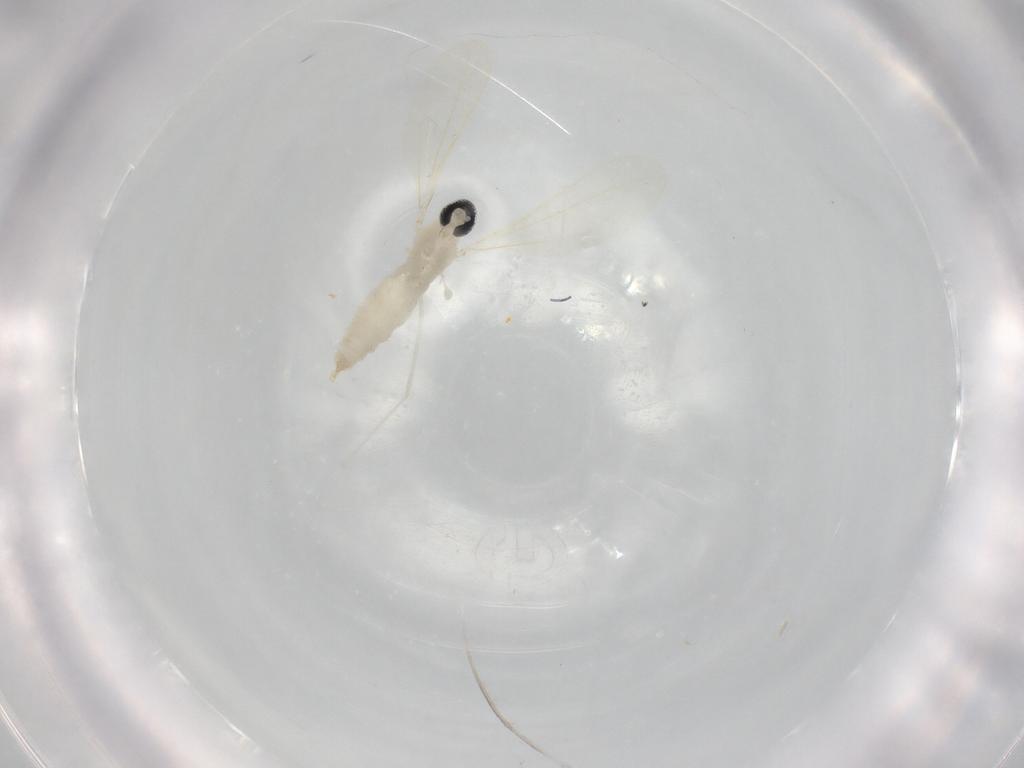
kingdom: Animalia
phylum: Arthropoda
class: Insecta
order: Diptera
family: Cecidomyiidae
